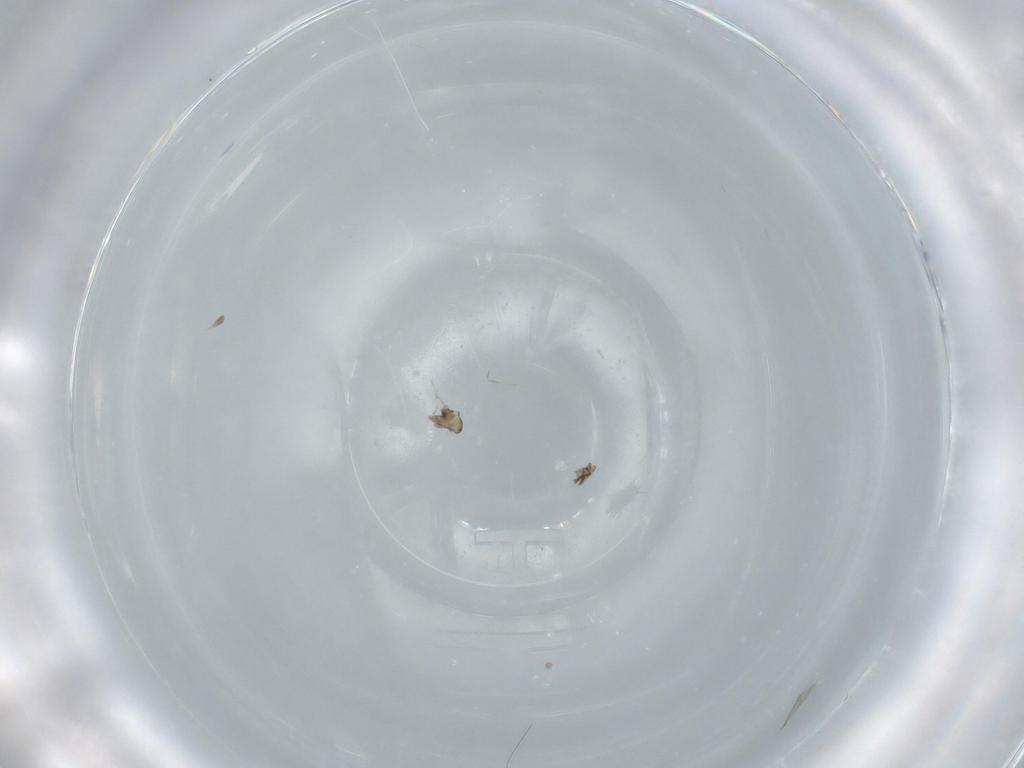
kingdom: Animalia
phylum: Arthropoda
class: Insecta
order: Diptera
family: Cecidomyiidae
